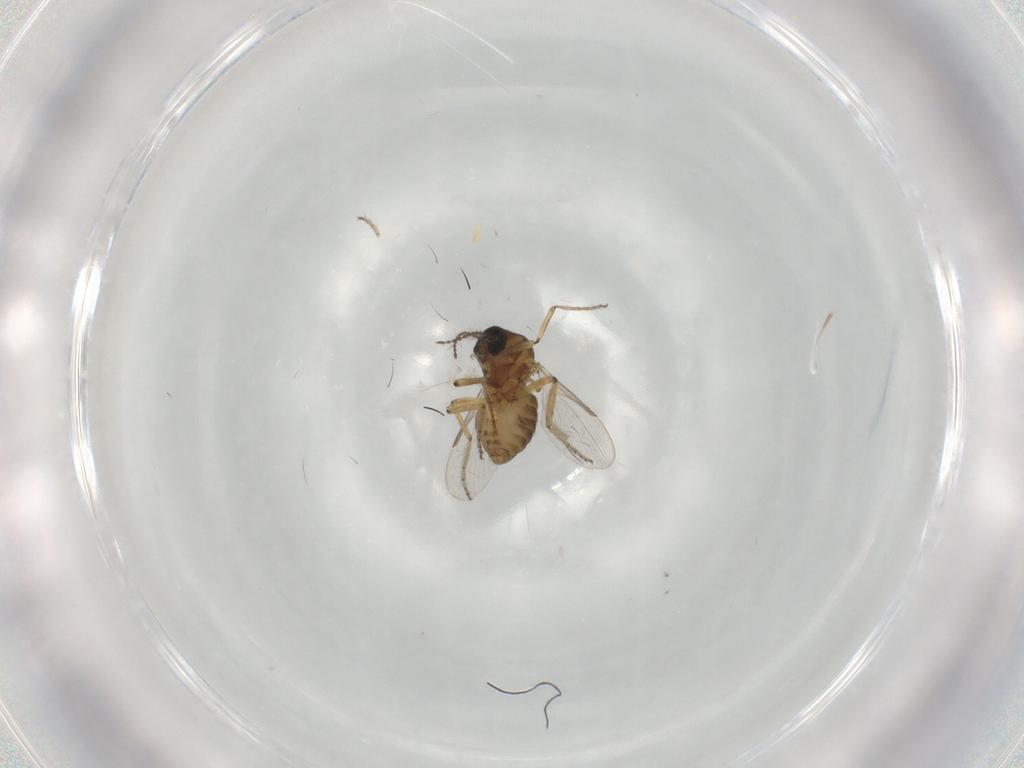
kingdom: Animalia
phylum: Arthropoda
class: Insecta
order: Diptera
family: Ceratopogonidae
